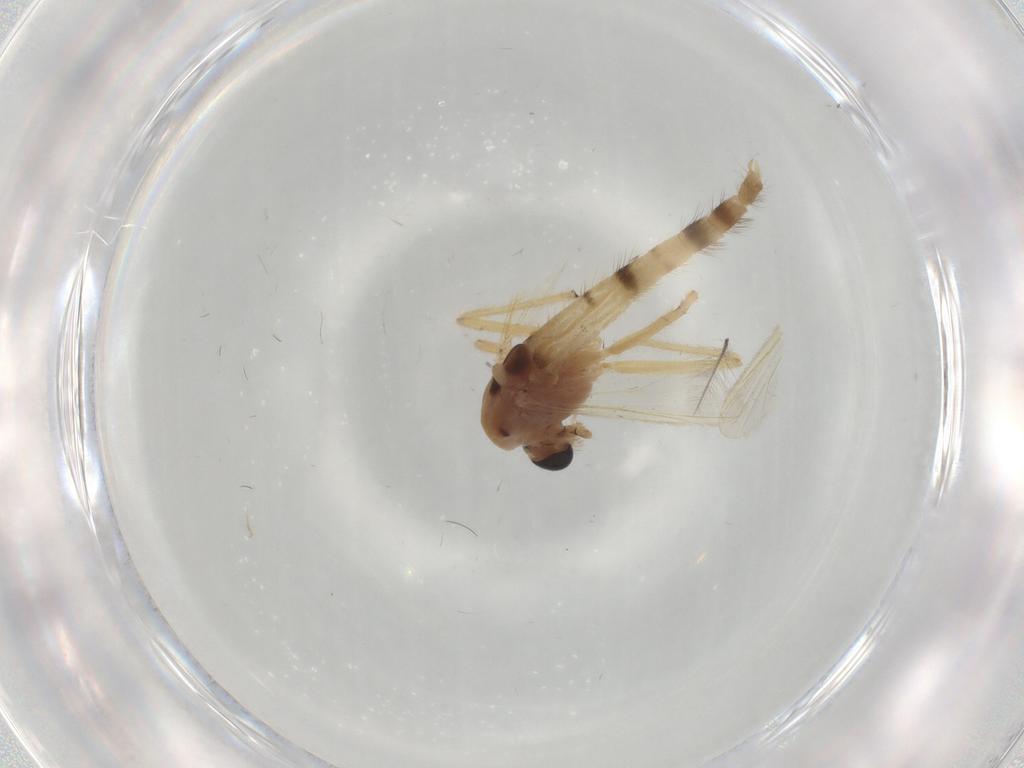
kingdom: Animalia
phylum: Arthropoda
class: Insecta
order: Diptera
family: Chironomidae
